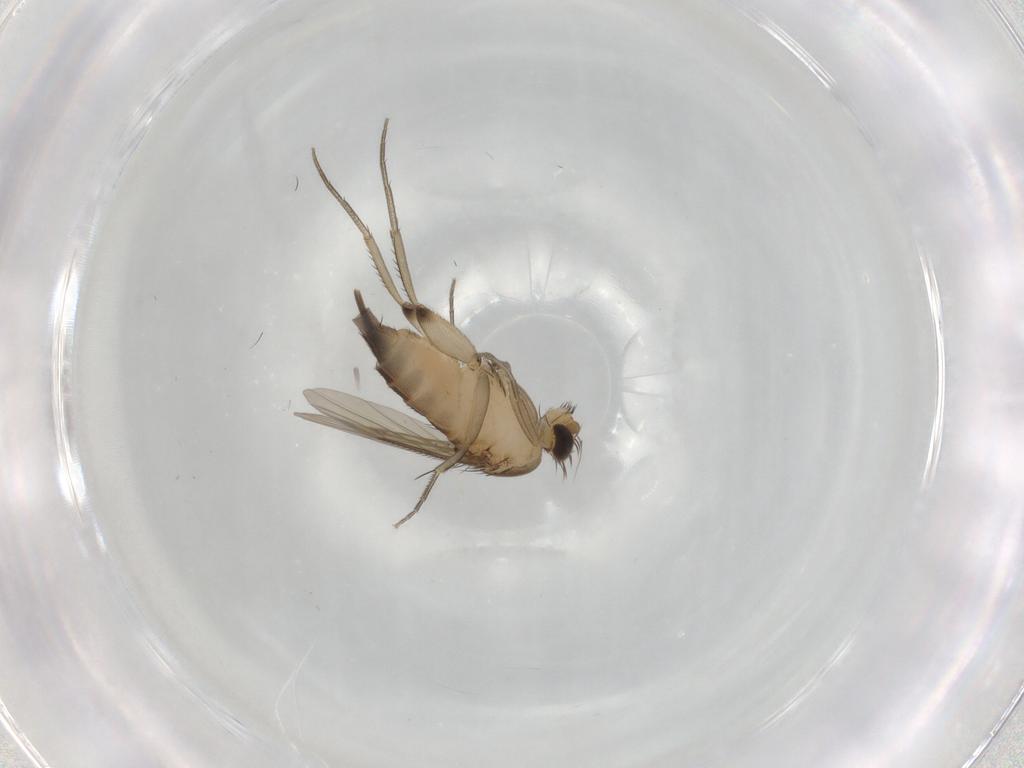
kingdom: Animalia
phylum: Arthropoda
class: Insecta
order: Diptera
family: Phoridae
